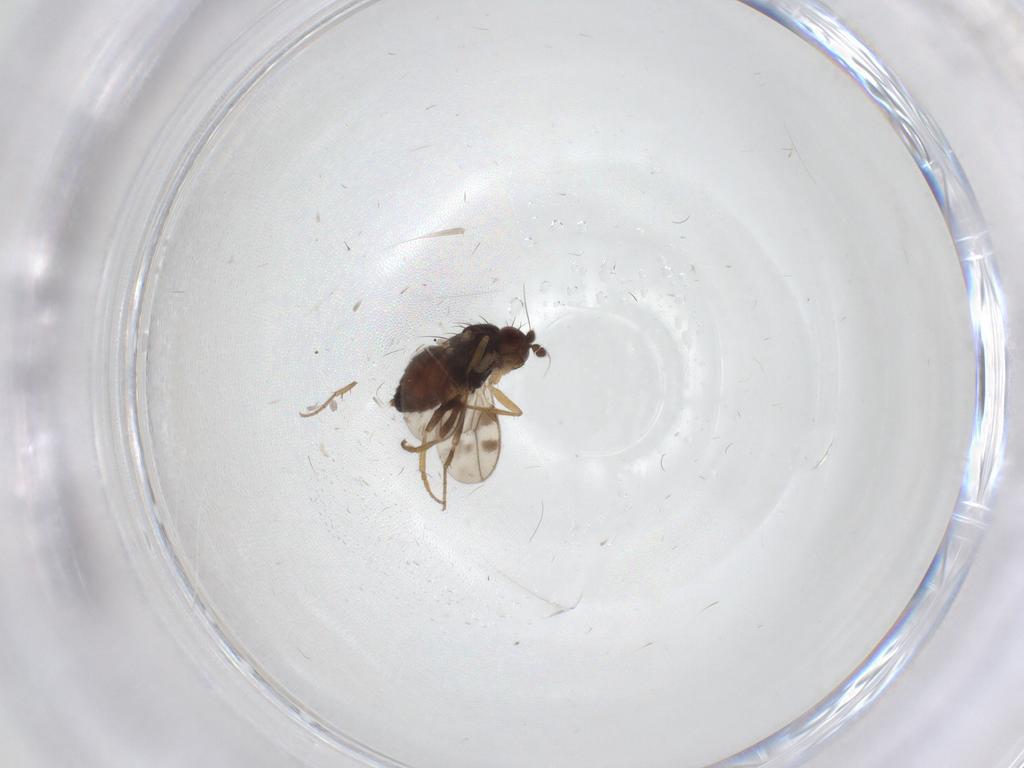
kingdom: Animalia
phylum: Arthropoda
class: Insecta
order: Diptera
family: Sphaeroceridae
